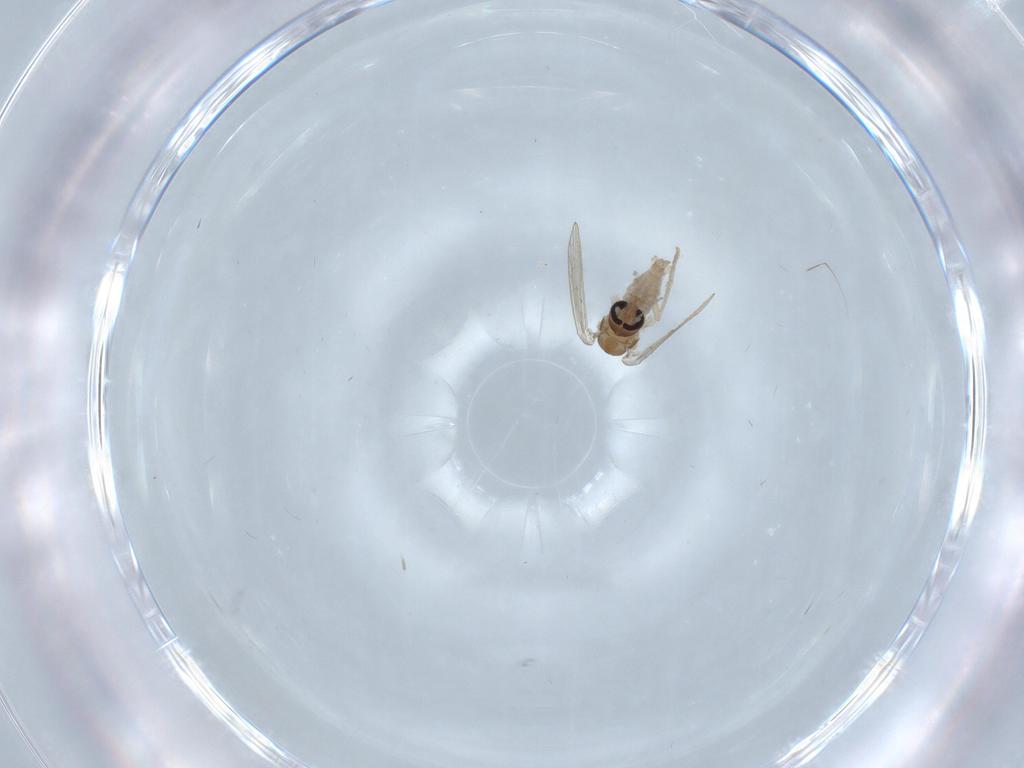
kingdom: Animalia
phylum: Arthropoda
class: Insecta
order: Diptera
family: Psychodidae
